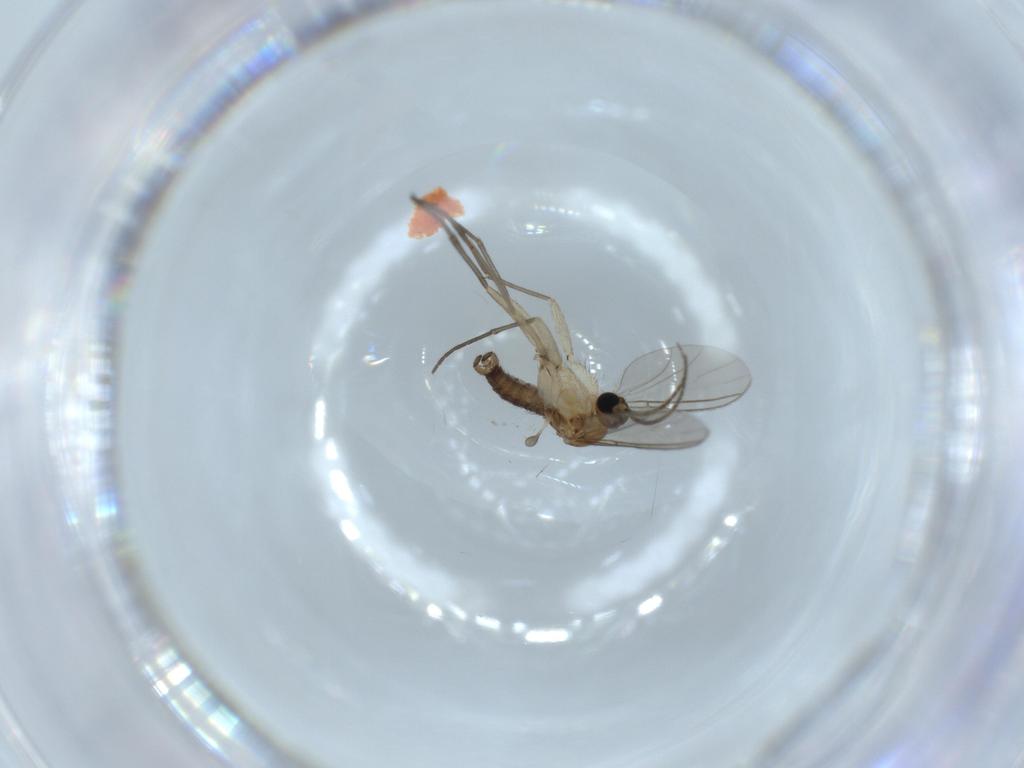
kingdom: Animalia
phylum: Arthropoda
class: Insecta
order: Diptera
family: Sciaridae
